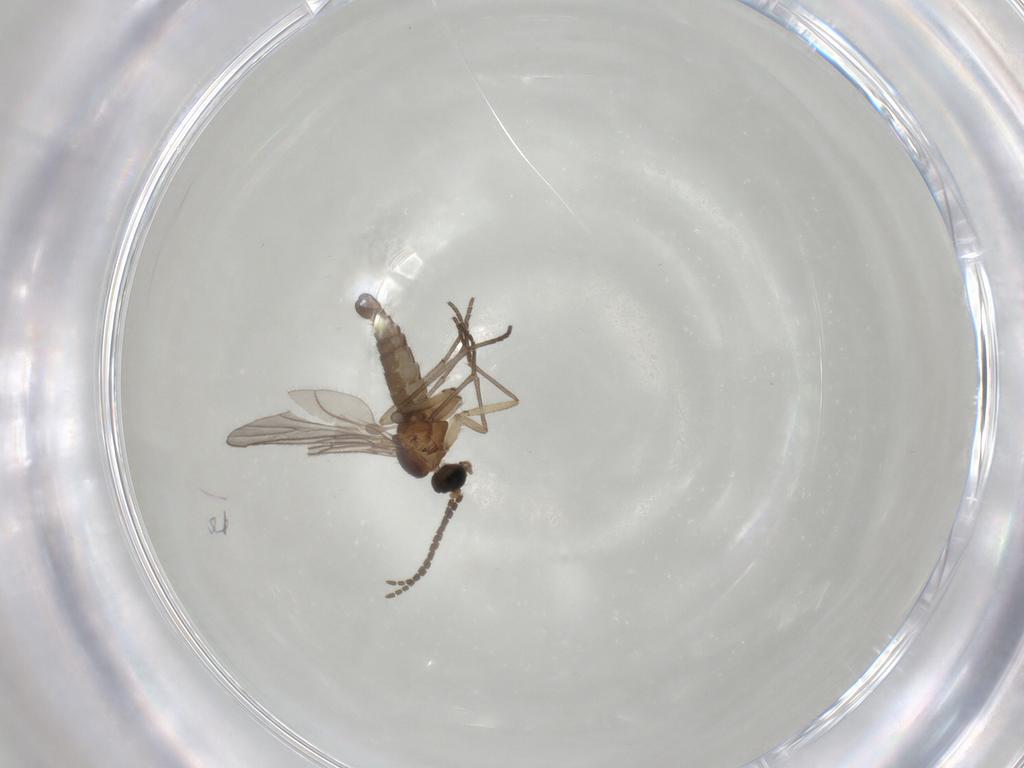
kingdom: Animalia
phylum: Arthropoda
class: Insecta
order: Diptera
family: Sciaridae
